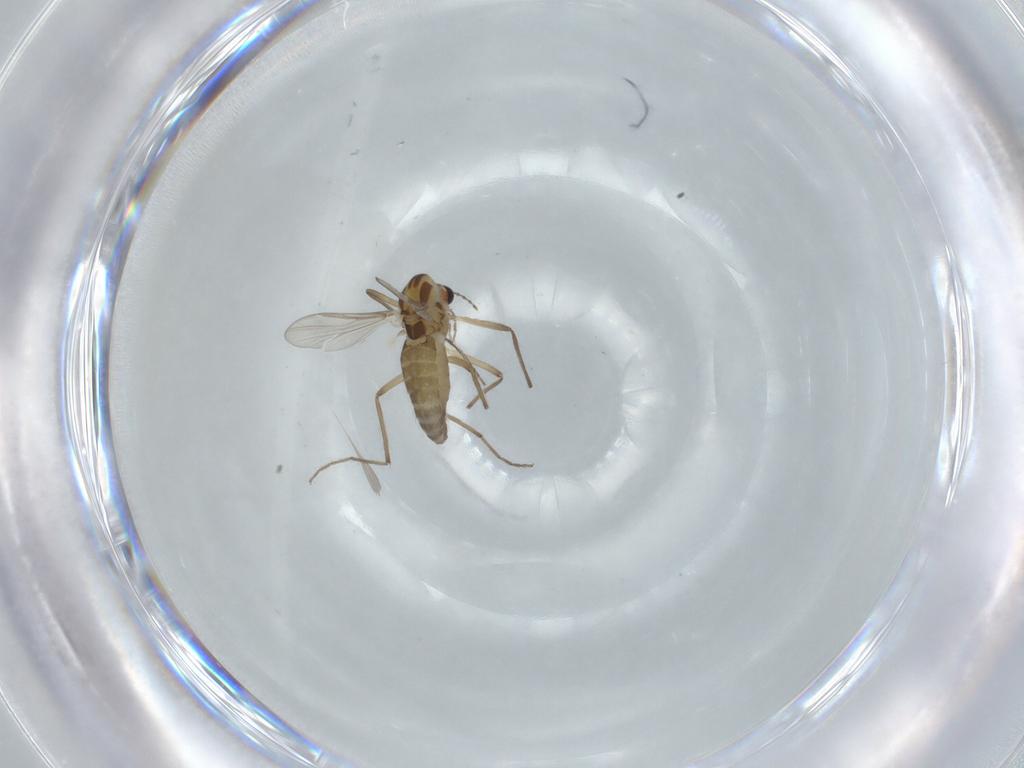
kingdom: Animalia
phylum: Arthropoda
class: Insecta
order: Diptera
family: Chironomidae
